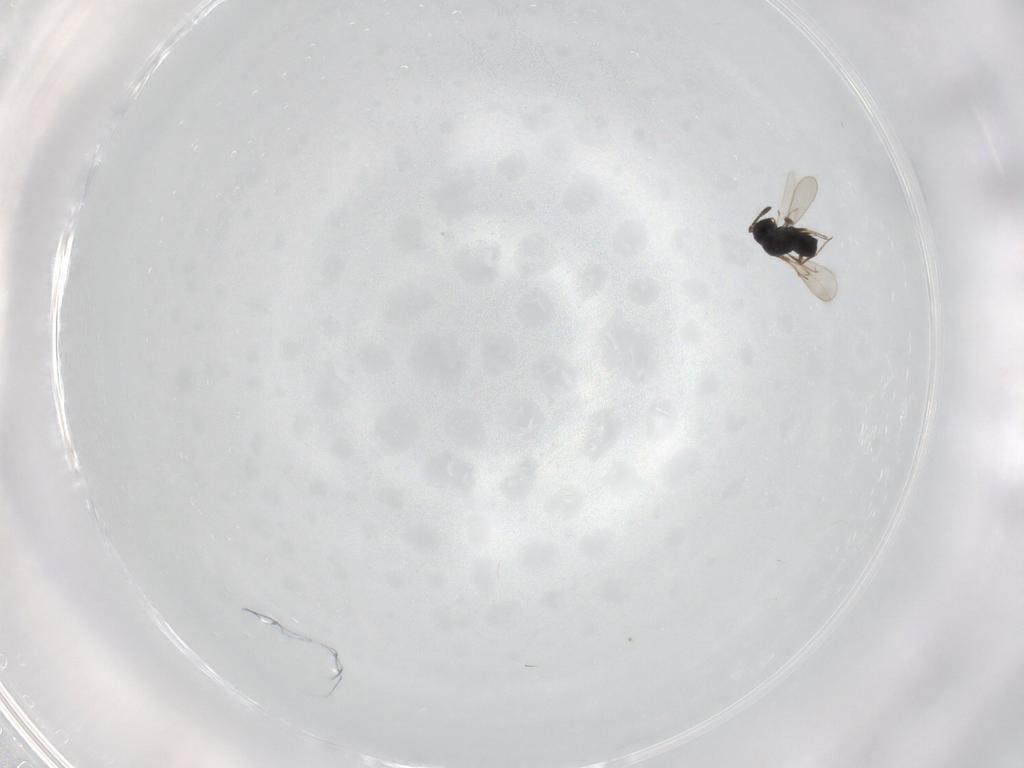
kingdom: Animalia
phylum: Arthropoda
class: Insecta
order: Hymenoptera
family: Scelionidae
